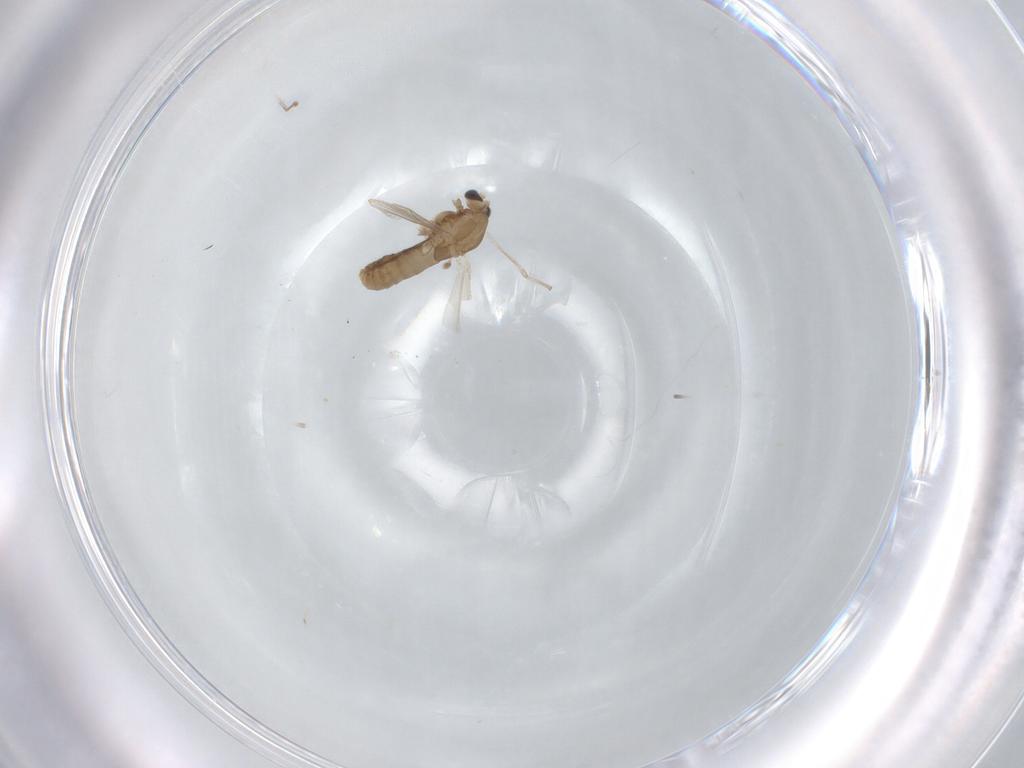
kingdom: Animalia
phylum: Arthropoda
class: Insecta
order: Diptera
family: Chironomidae
